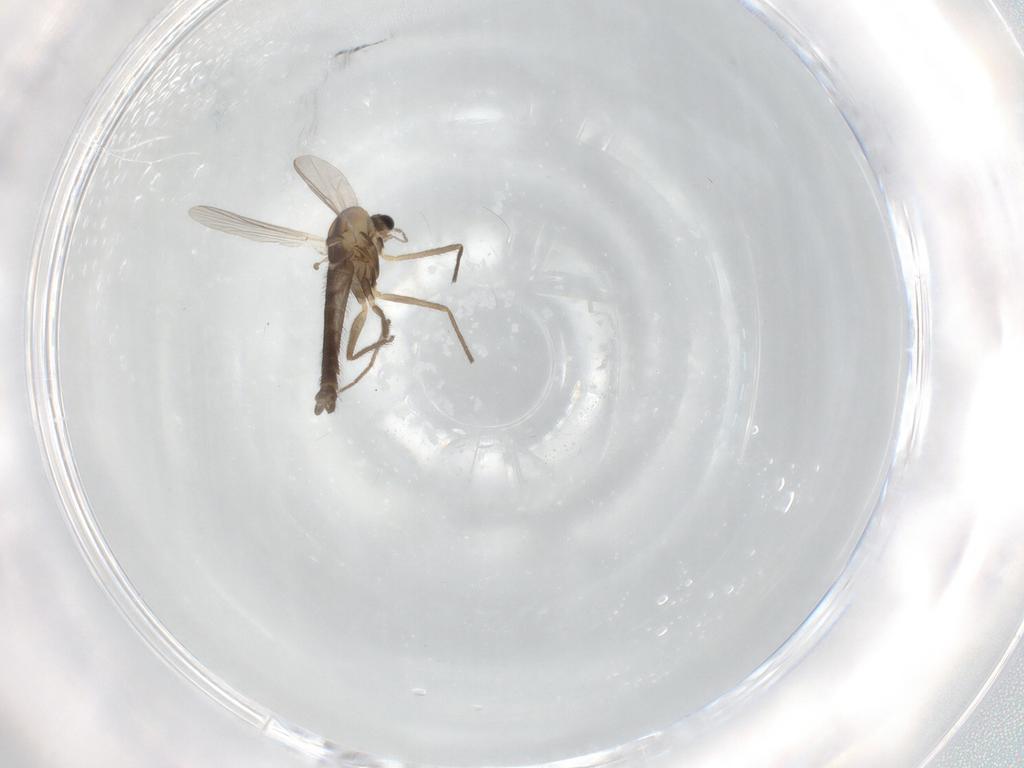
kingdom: Animalia
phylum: Arthropoda
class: Insecta
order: Diptera
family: Chironomidae
